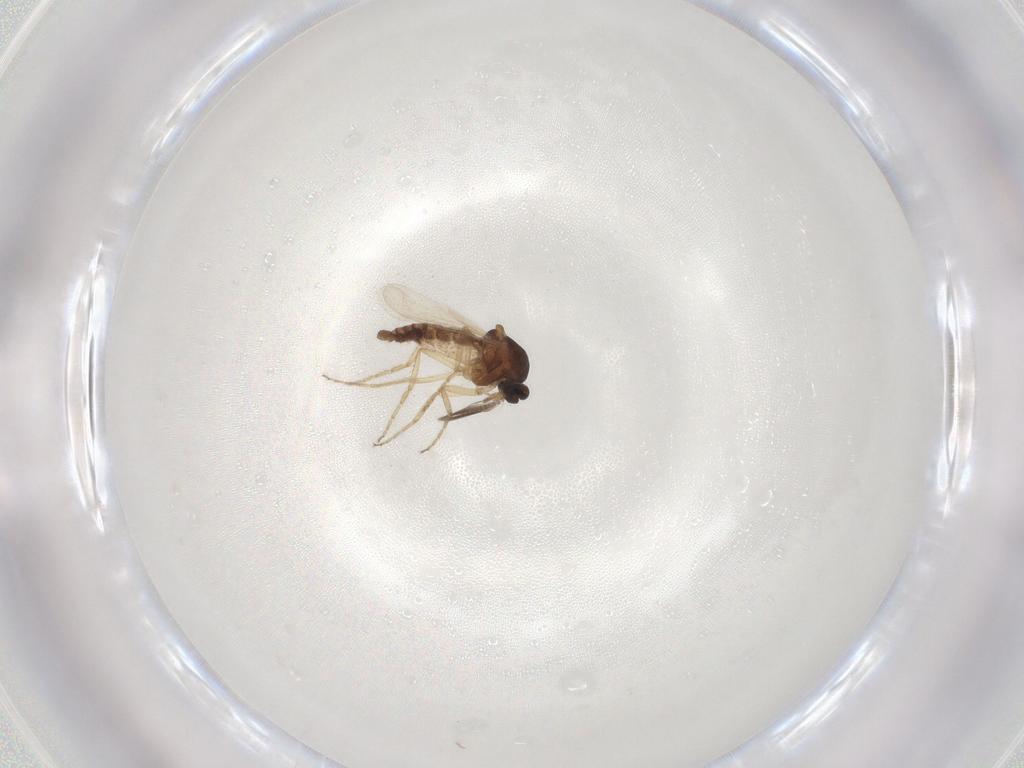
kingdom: Animalia
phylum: Arthropoda
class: Insecta
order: Diptera
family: Ceratopogonidae
